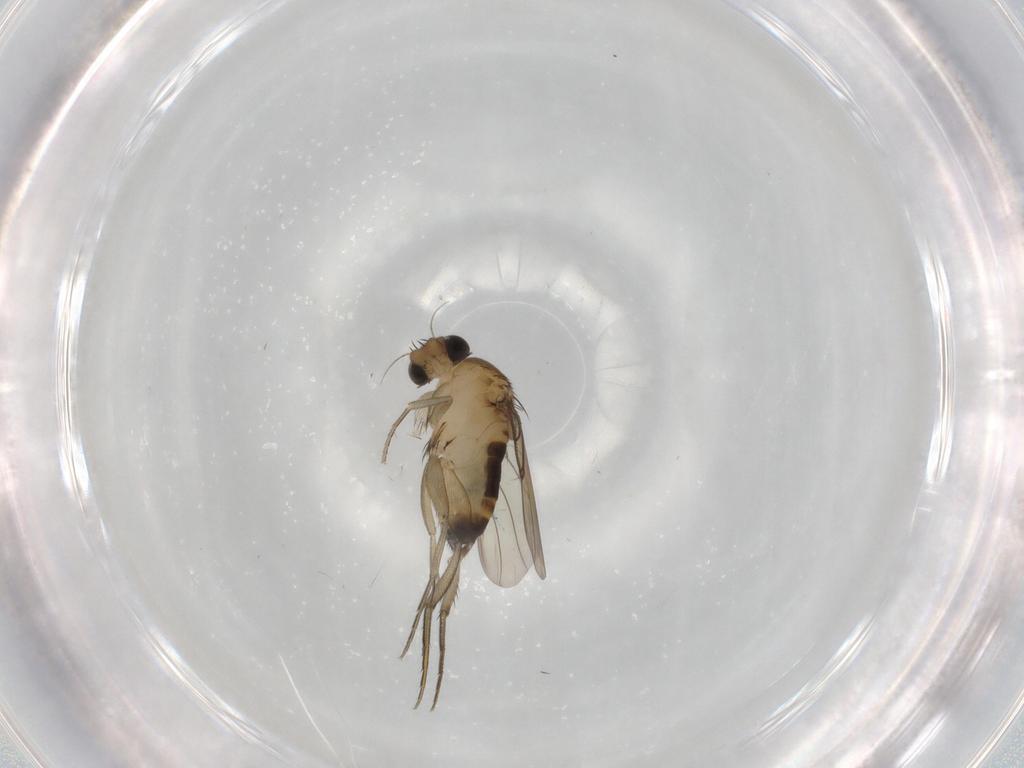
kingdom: Animalia
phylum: Arthropoda
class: Insecta
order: Diptera
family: Phoridae
